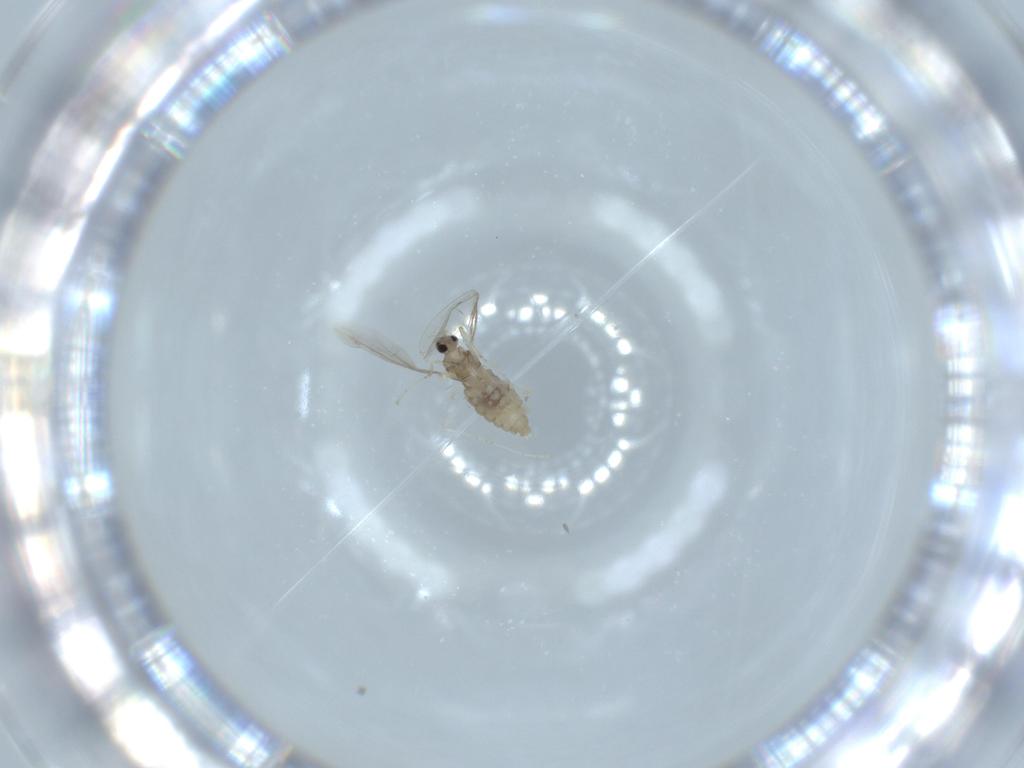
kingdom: Animalia
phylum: Arthropoda
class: Insecta
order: Diptera
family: Cecidomyiidae
